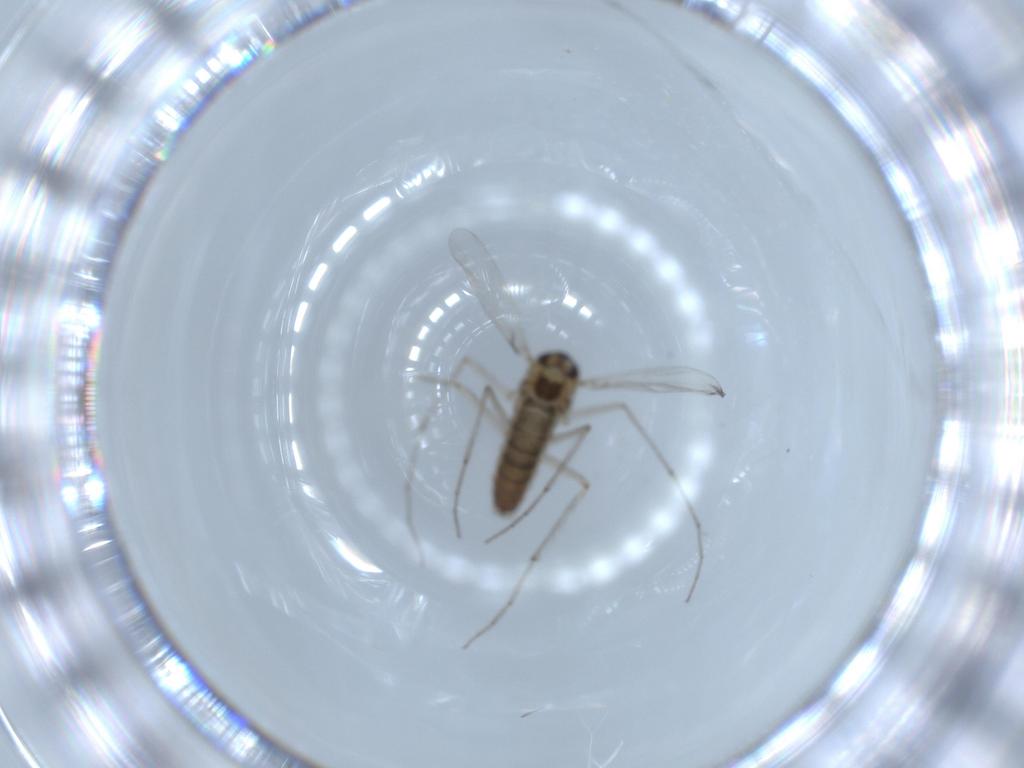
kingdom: Animalia
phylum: Arthropoda
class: Insecta
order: Diptera
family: Chironomidae
